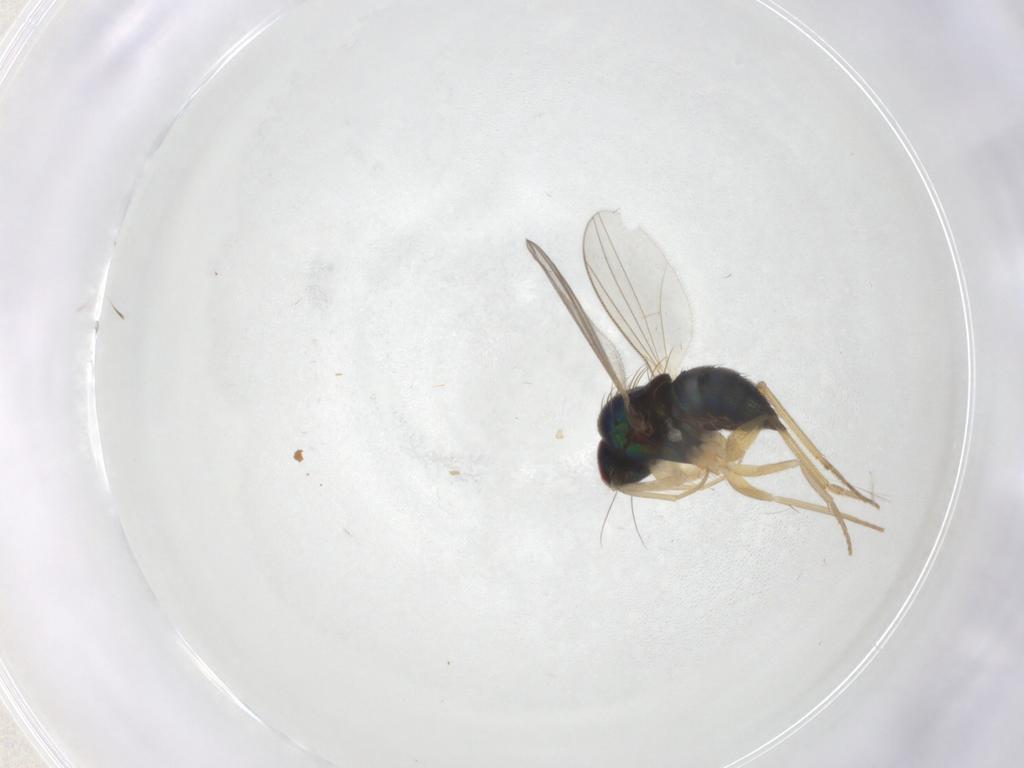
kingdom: Animalia
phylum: Arthropoda
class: Insecta
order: Diptera
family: Dolichopodidae
